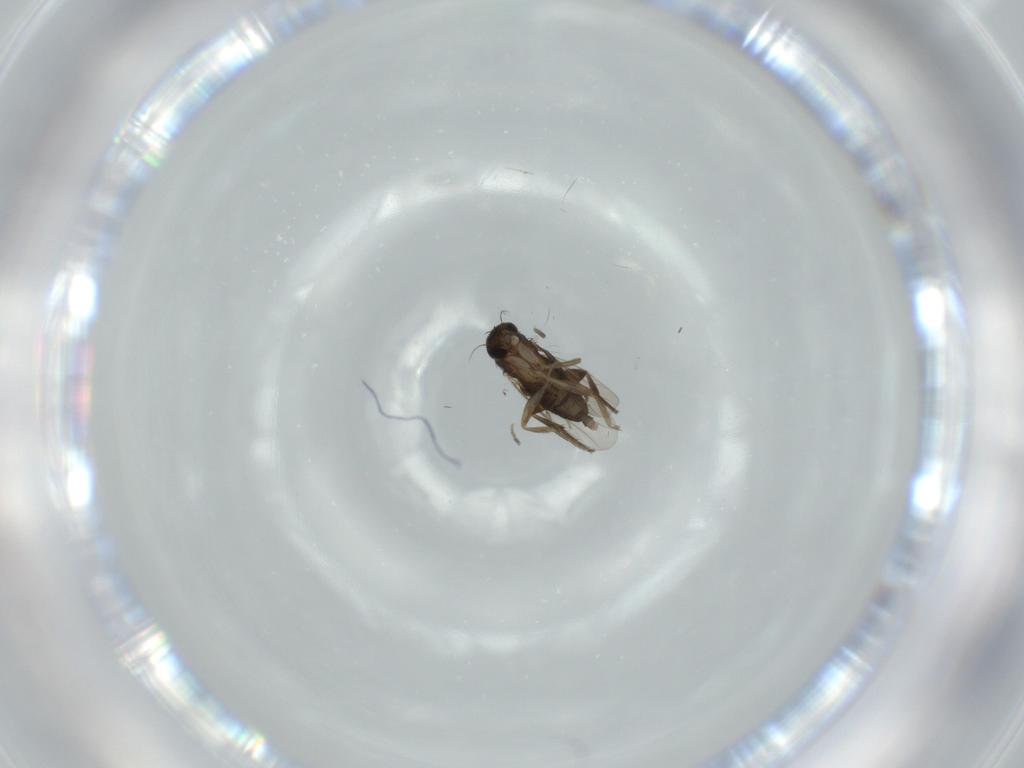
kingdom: Animalia
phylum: Arthropoda
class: Insecta
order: Diptera
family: Phoridae
